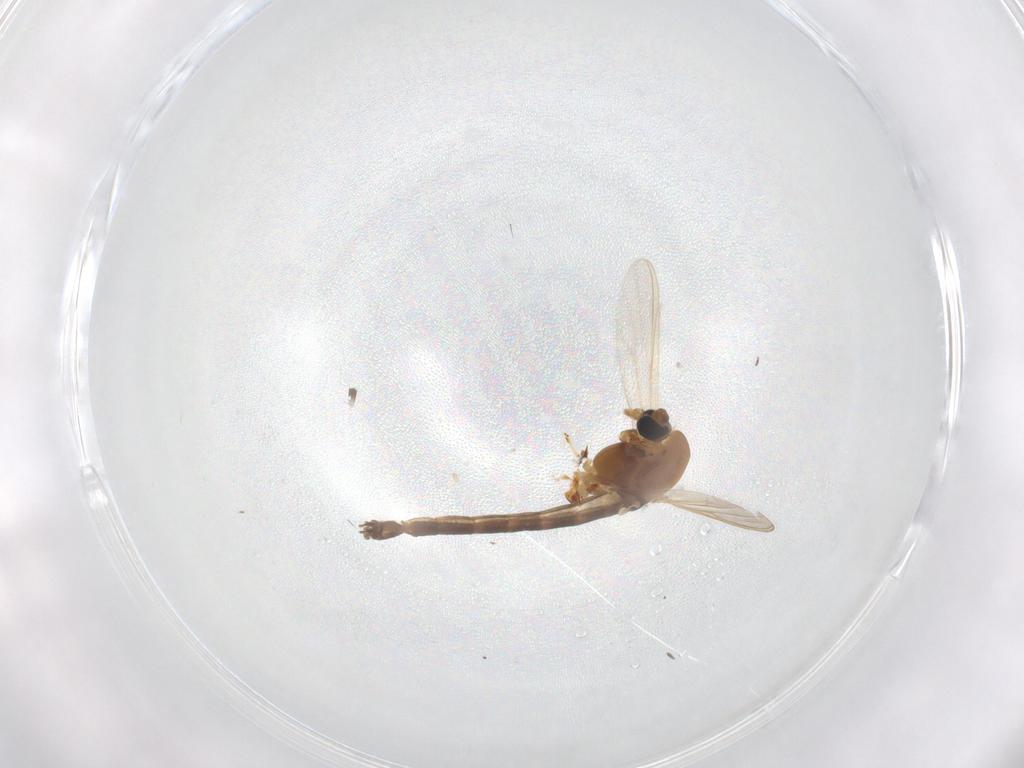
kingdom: Animalia
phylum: Arthropoda
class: Insecta
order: Diptera
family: Chironomidae
